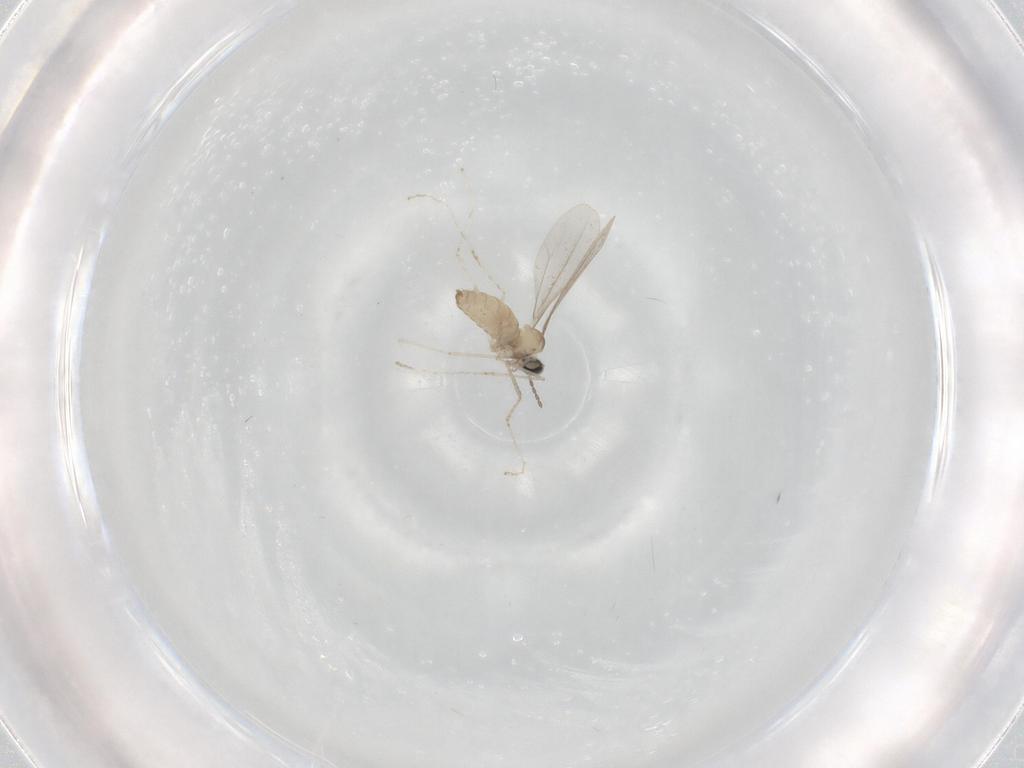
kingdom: Animalia
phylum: Arthropoda
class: Insecta
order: Diptera
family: Cecidomyiidae
